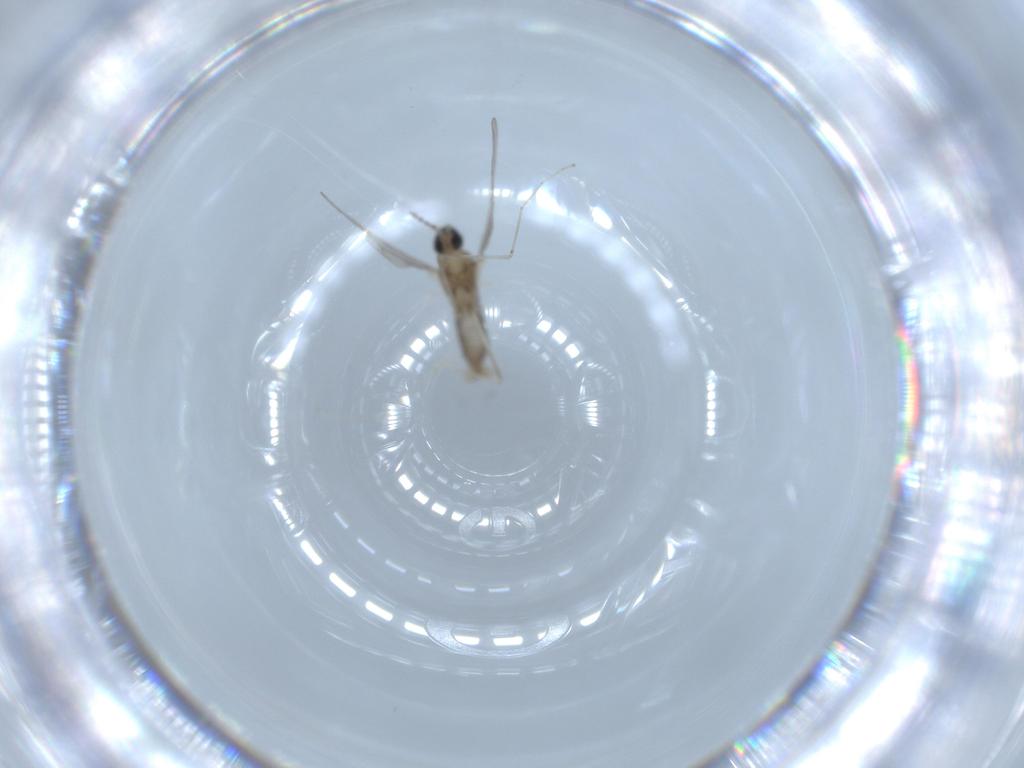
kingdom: Animalia
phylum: Arthropoda
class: Insecta
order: Diptera
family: Cecidomyiidae
